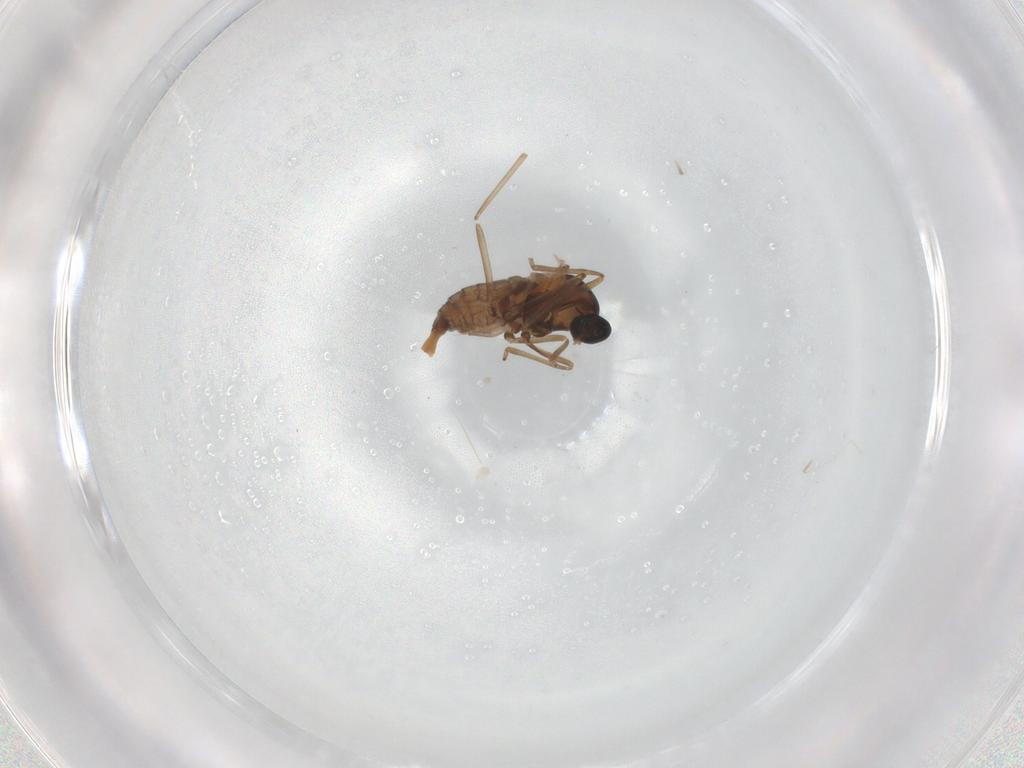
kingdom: Animalia
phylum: Arthropoda
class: Insecta
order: Diptera
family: Cecidomyiidae
